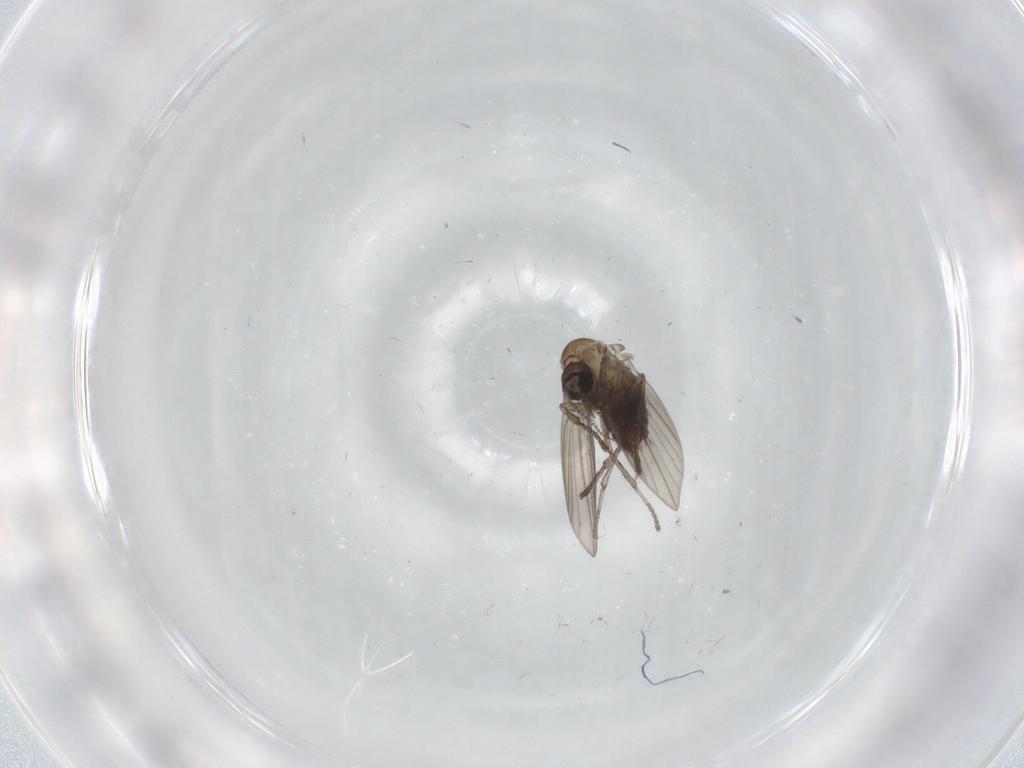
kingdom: Animalia
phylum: Arthropoda
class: Insecta
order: Diptera
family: Psychodidae
